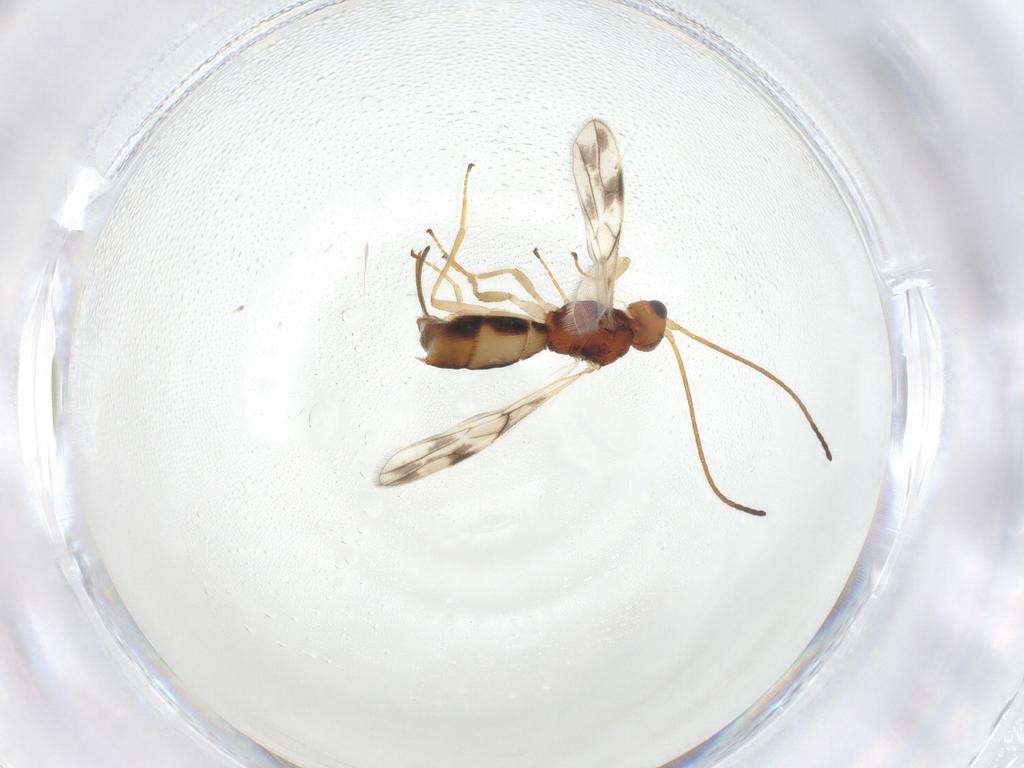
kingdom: Animalia
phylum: Arthropoda
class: Insecta
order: Hymenoptera
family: Braconidae
